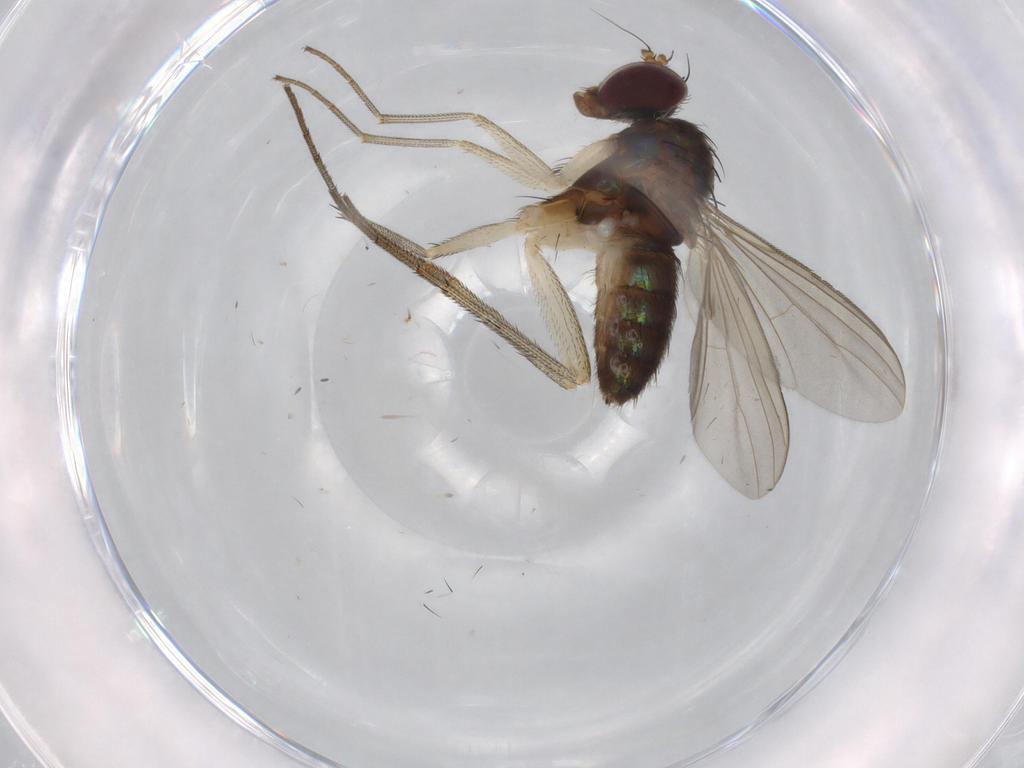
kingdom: Animalia
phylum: Arthropoda
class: Insecta
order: Diptera
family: Dolichopodidae
